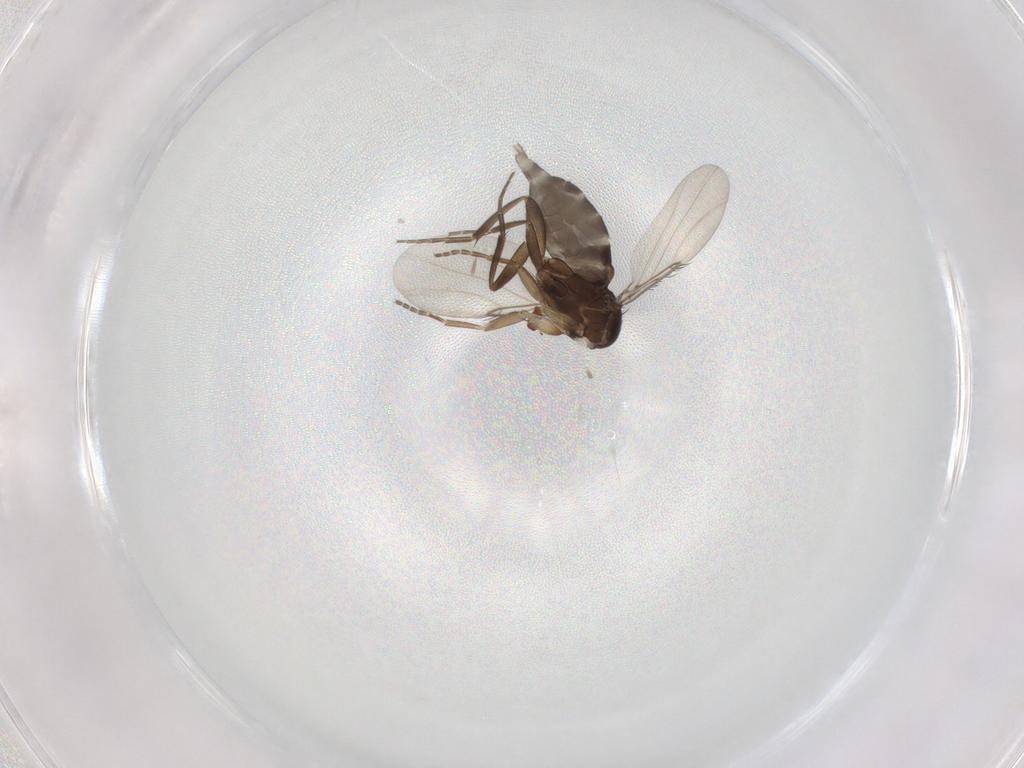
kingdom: Animalia
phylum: Arthropoda
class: Insecta
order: Diptera
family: Phoridae
